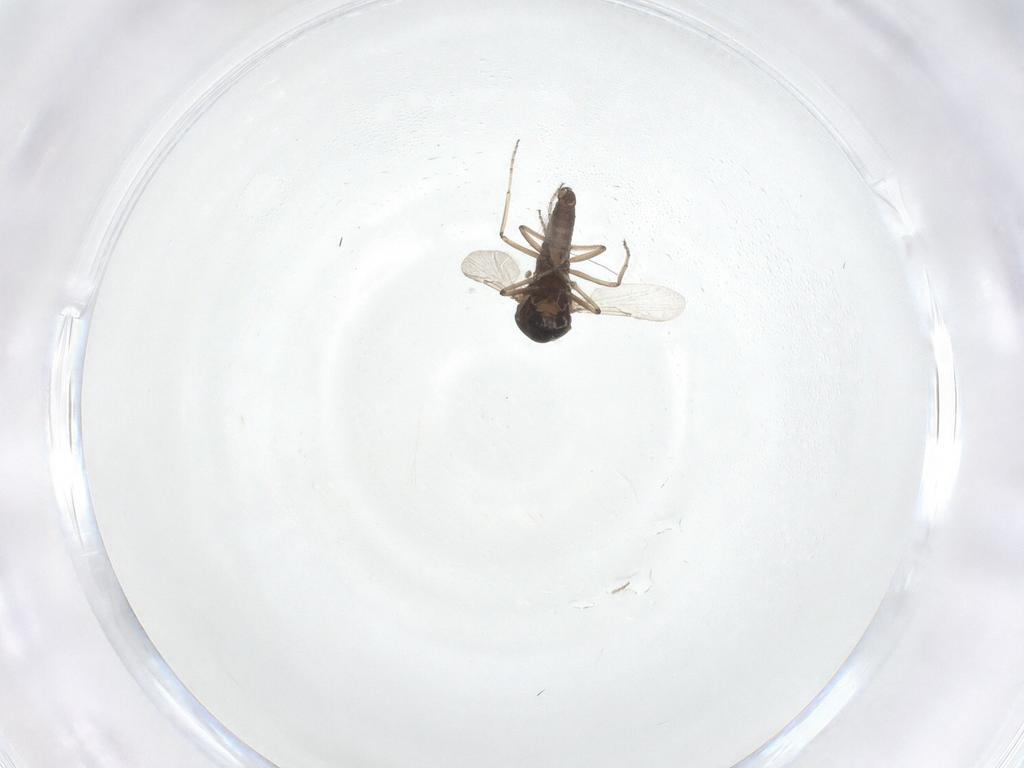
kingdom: Animalia
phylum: Arthropoda
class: Insecta
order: Diptera
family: Ceratopogonidae
